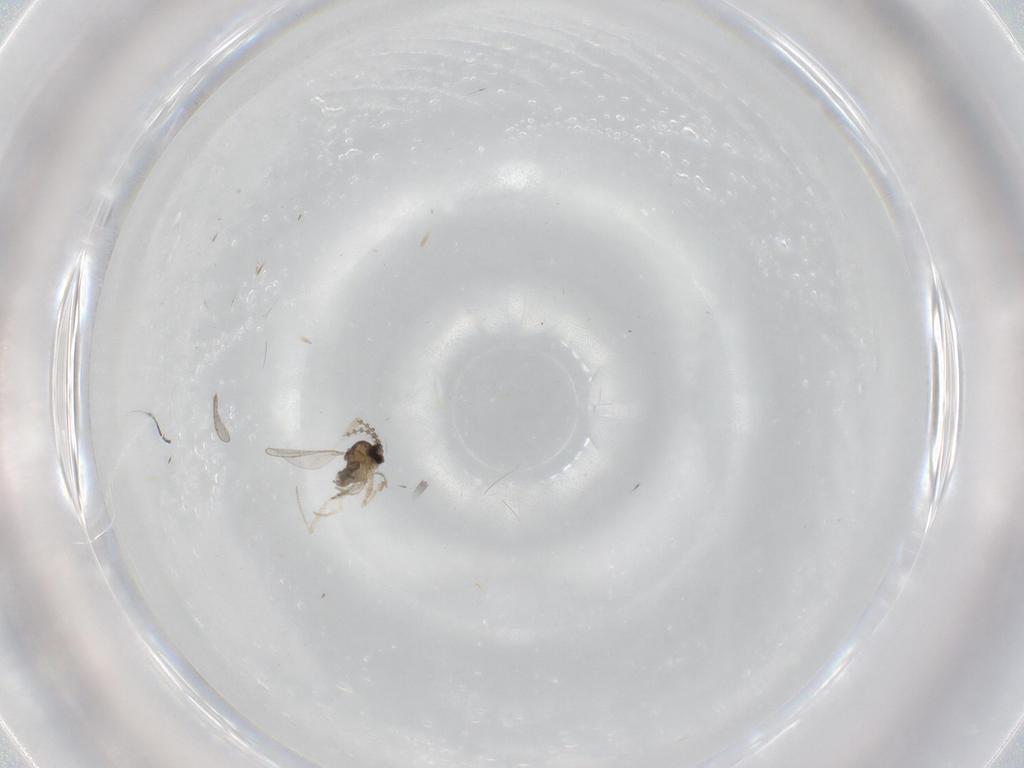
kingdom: Animalia
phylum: Arthropoda
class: Insecta
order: Diptera
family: Cecidomyiidae
